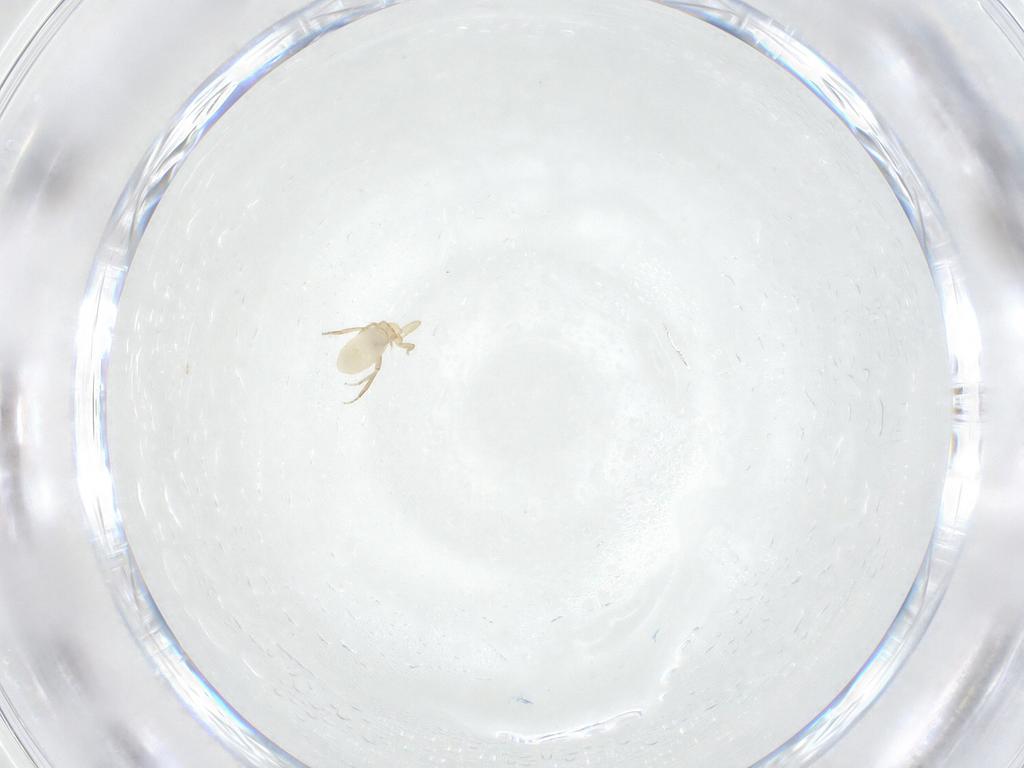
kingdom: Animalia
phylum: Arthropoda
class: Insecta
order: Diptera
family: Phoridae
